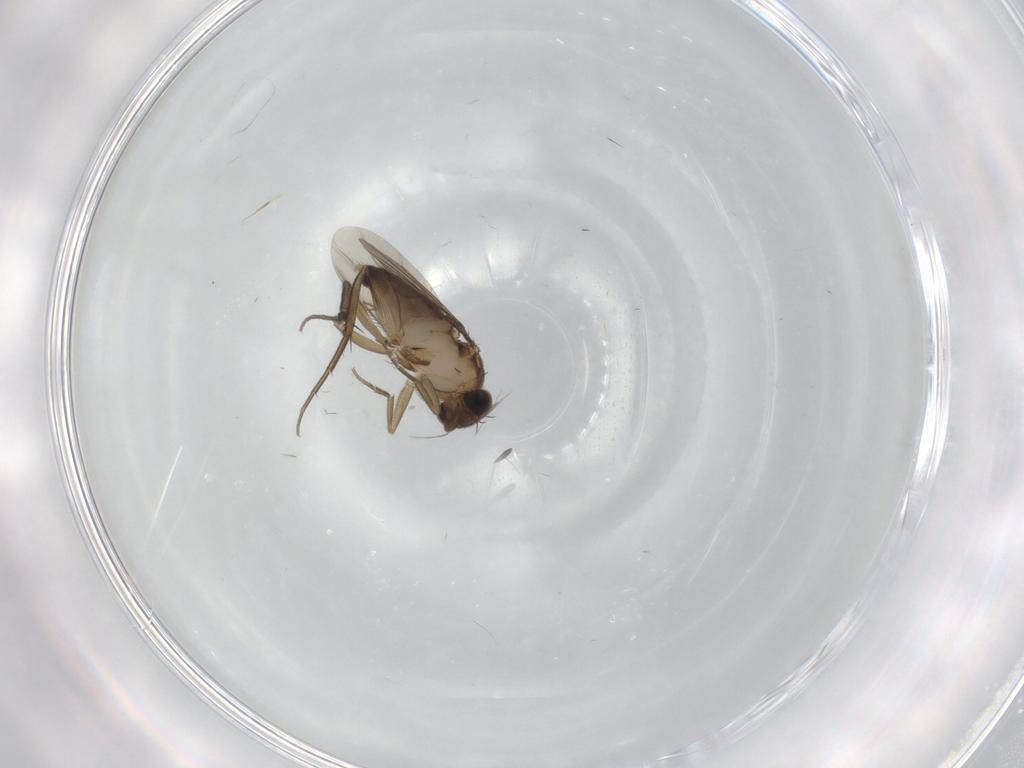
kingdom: Animalia
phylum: Arthropoda
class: Insecta
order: Diptera
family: Phoridae
